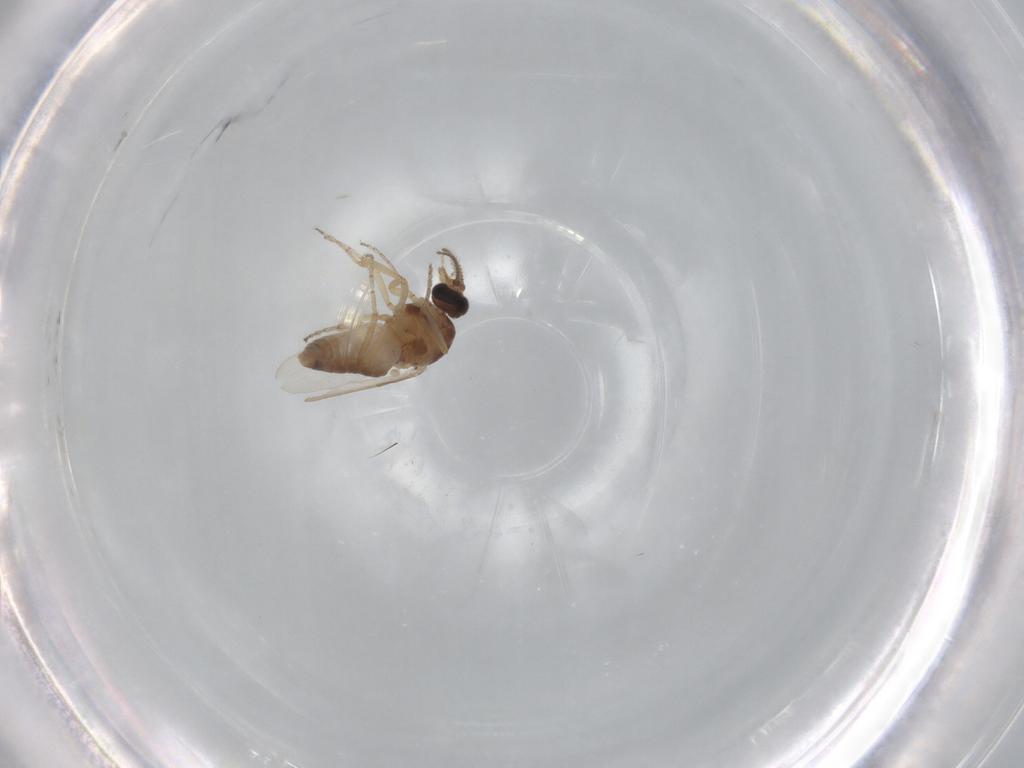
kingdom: Animalia
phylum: Arthropoda
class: Insecta
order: Diptera
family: Ceratopogonidae
